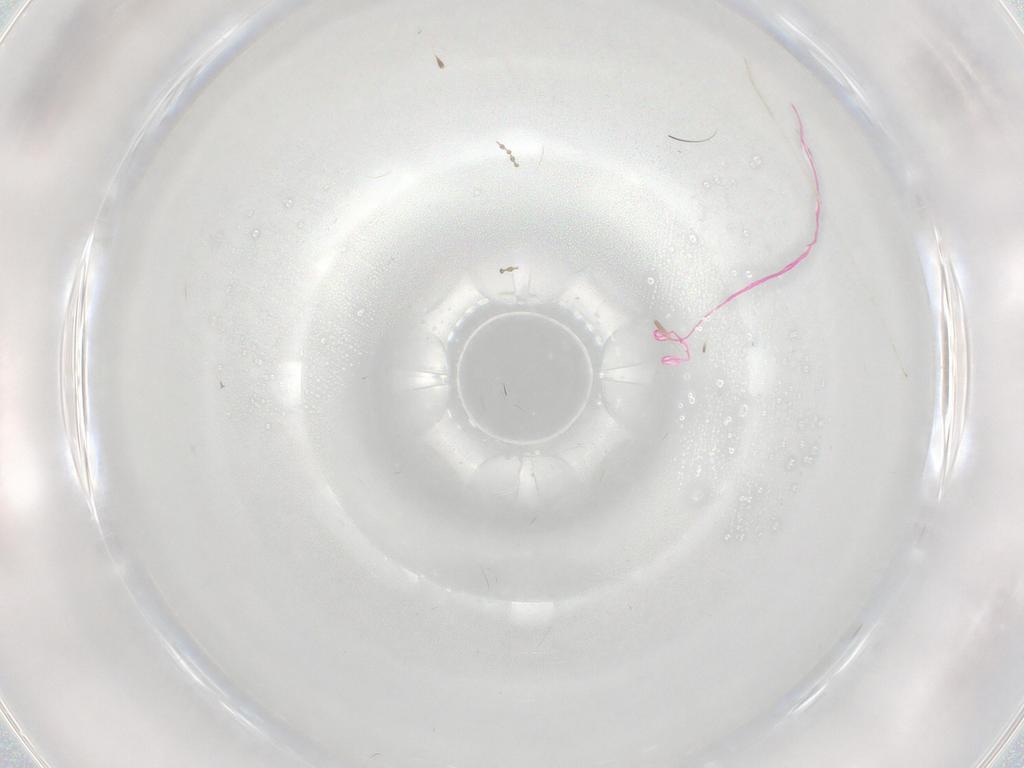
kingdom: Animalia
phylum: Arthropoda
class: Insecta
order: Diptera
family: Cecidomyiidae
